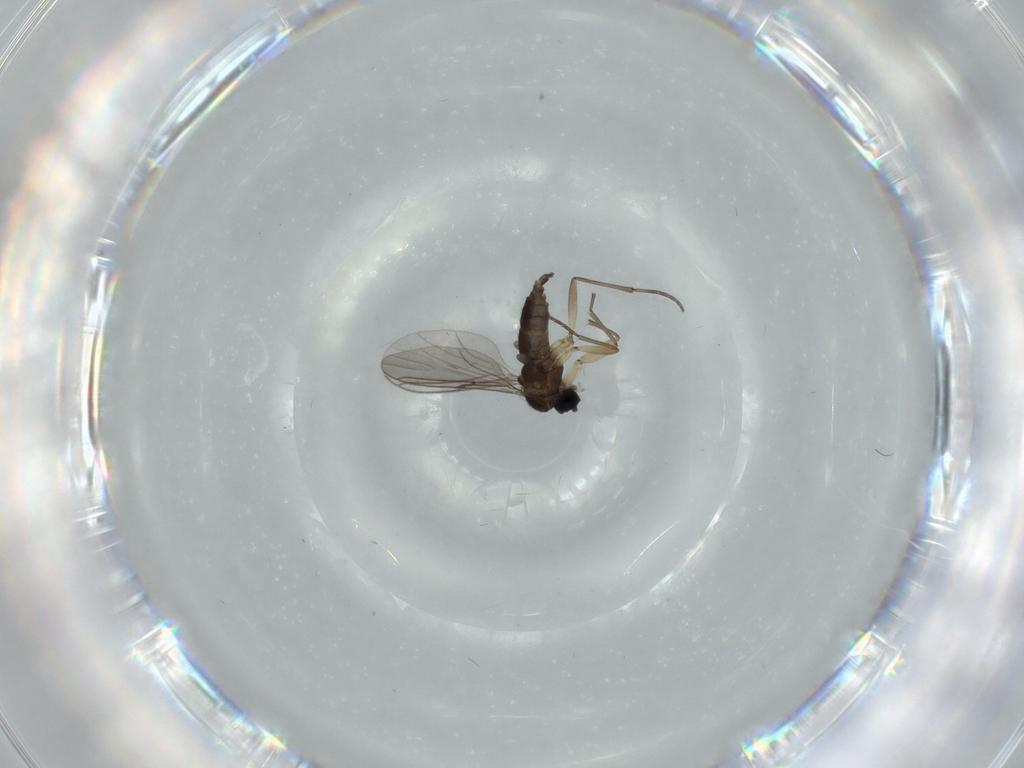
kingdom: Animalia
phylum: Arthropoda
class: Insecta
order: Diptera
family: Sciaridae
